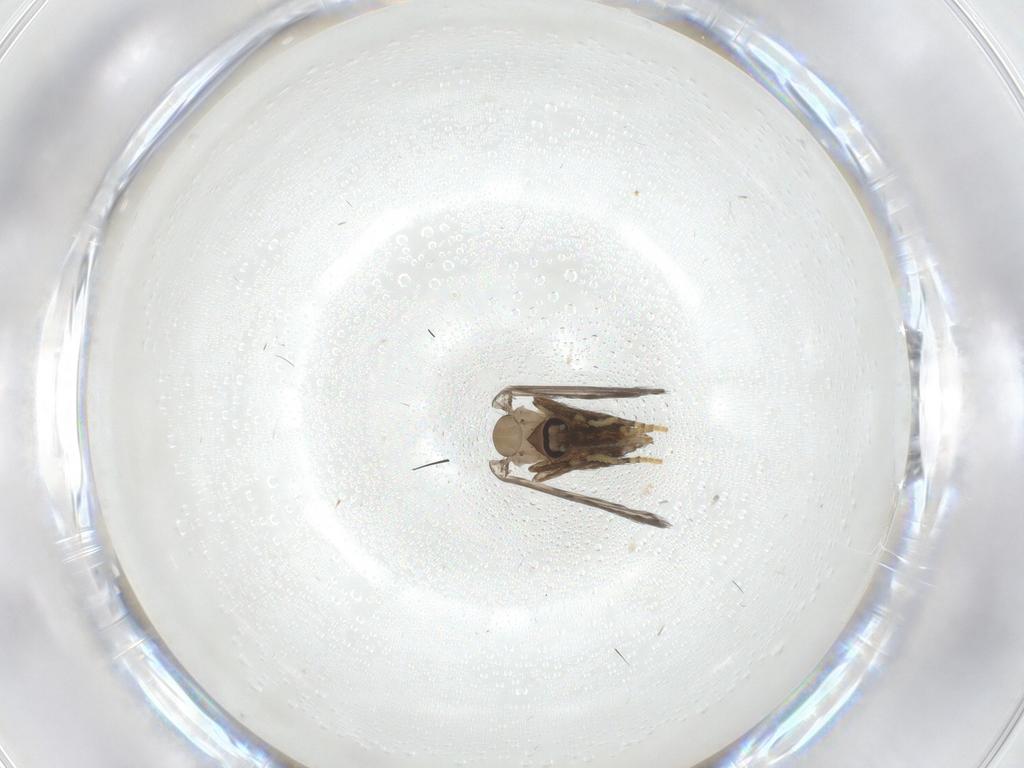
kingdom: Animalia
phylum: Arthropoda
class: Insecta
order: Diptera
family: Psychodidae
